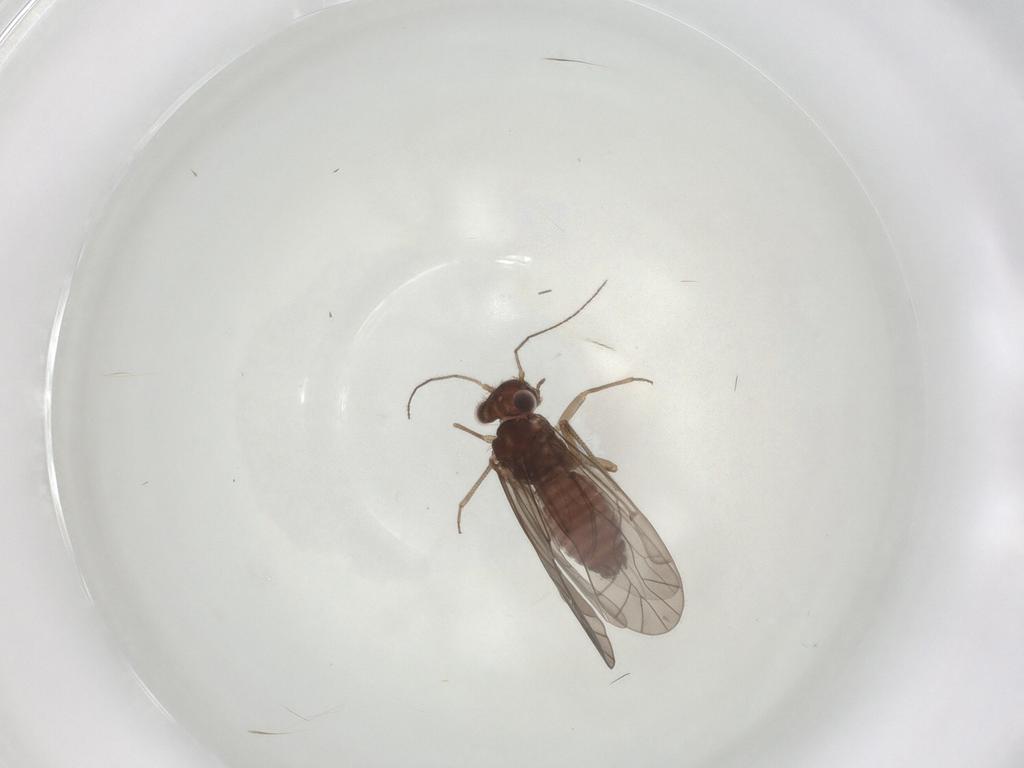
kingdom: Animalia
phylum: Arthropoda
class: Insecta
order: Psocodea
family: Lachesillidae
